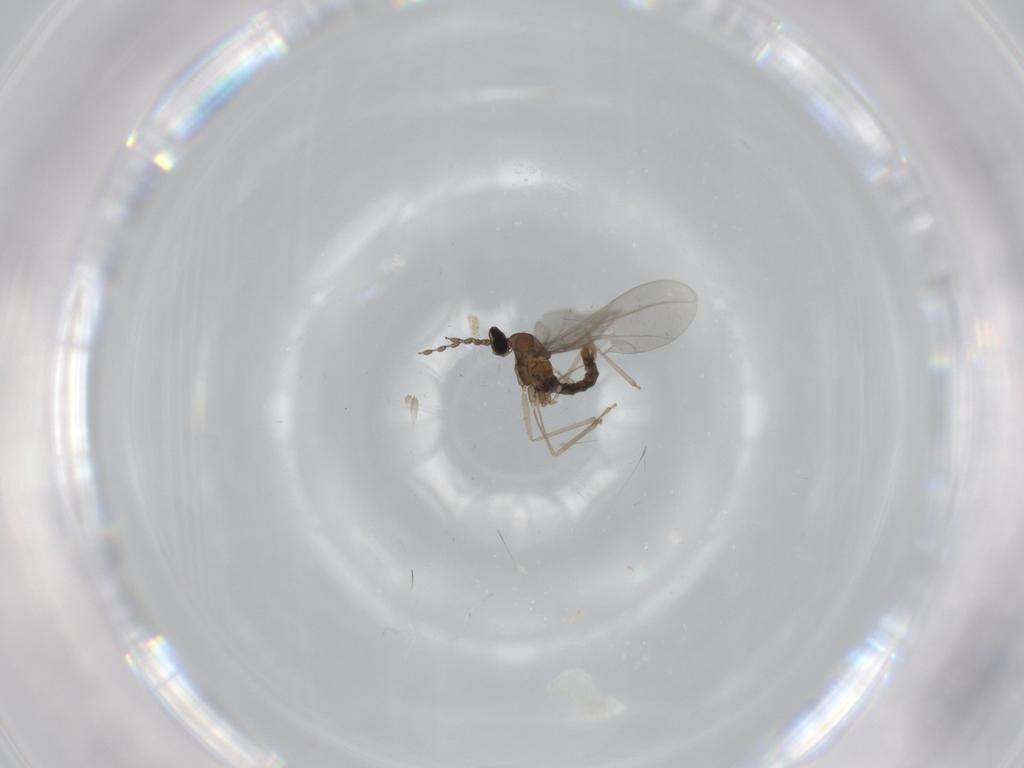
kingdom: Animalia
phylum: Arthropoda
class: Insecta
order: Diptera
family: Cecidomyiidae
